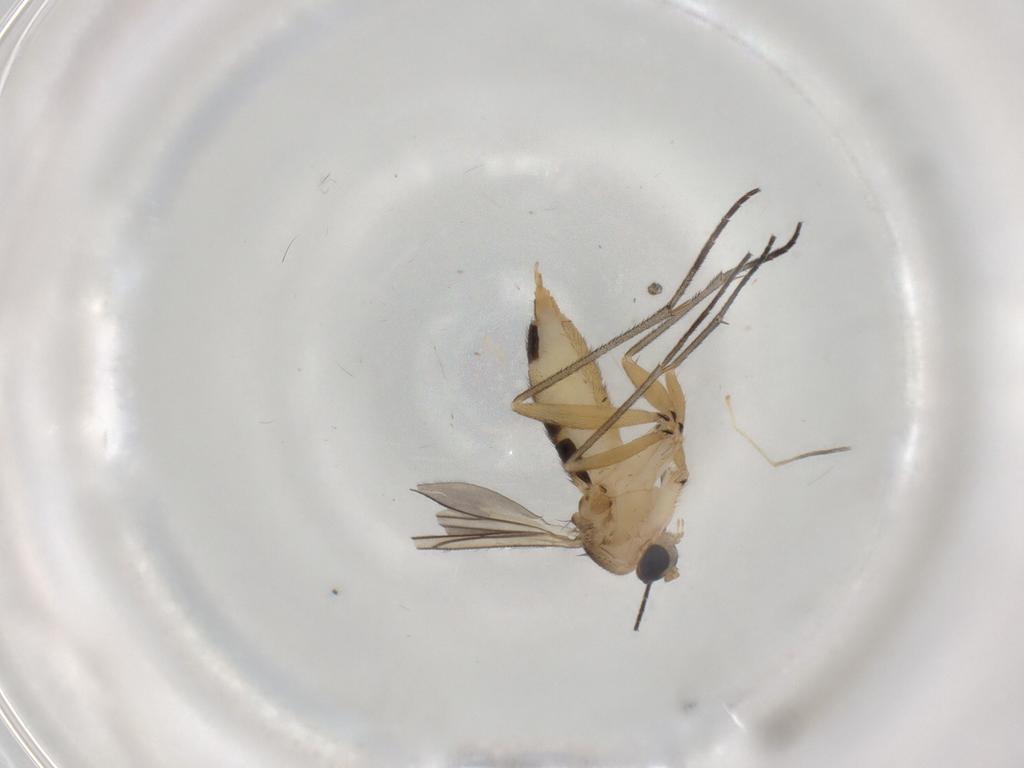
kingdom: Animalia
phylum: Arthropoda
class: Insecta
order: Diptera
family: Sciaridae
